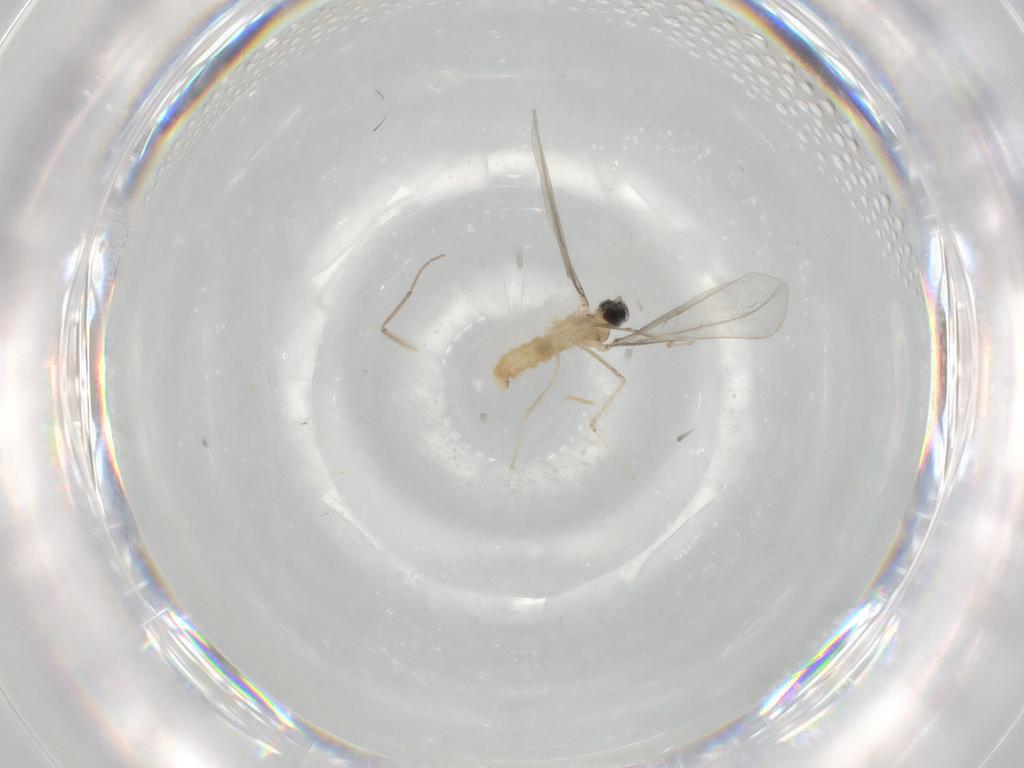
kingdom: Animalia
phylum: Arthropoda
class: Insecta
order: Diptera
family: Cecidomyiidae
